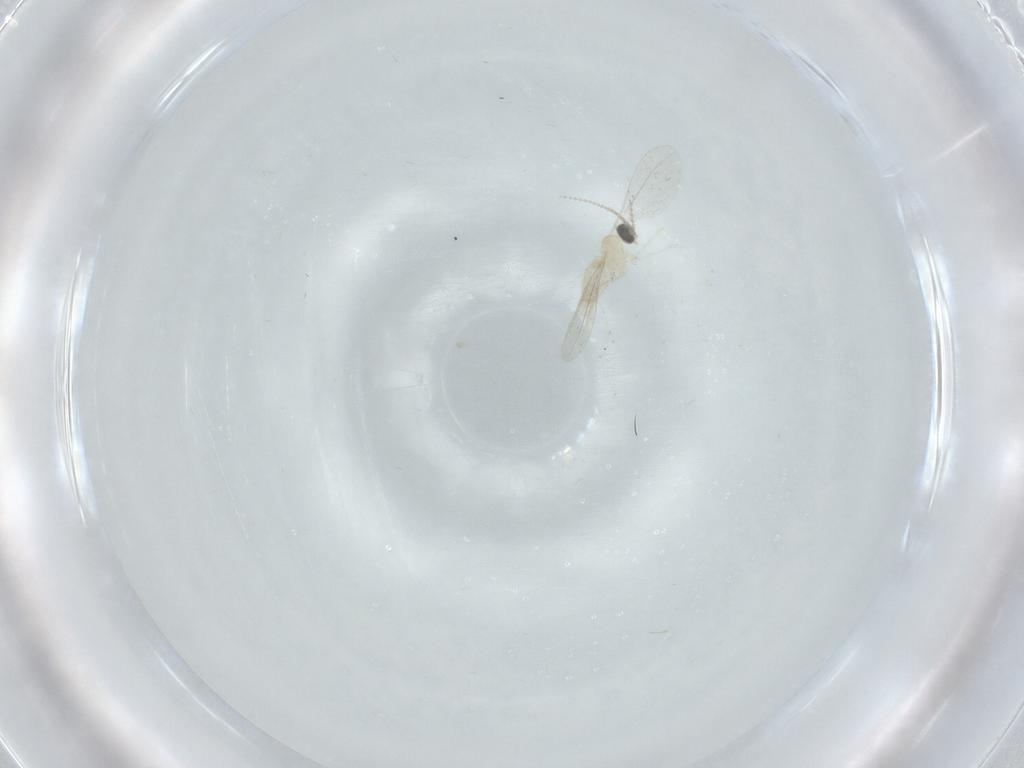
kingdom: Animalia
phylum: Arthropoda
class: Insecta
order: Diptera
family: Cecidomyiidae
